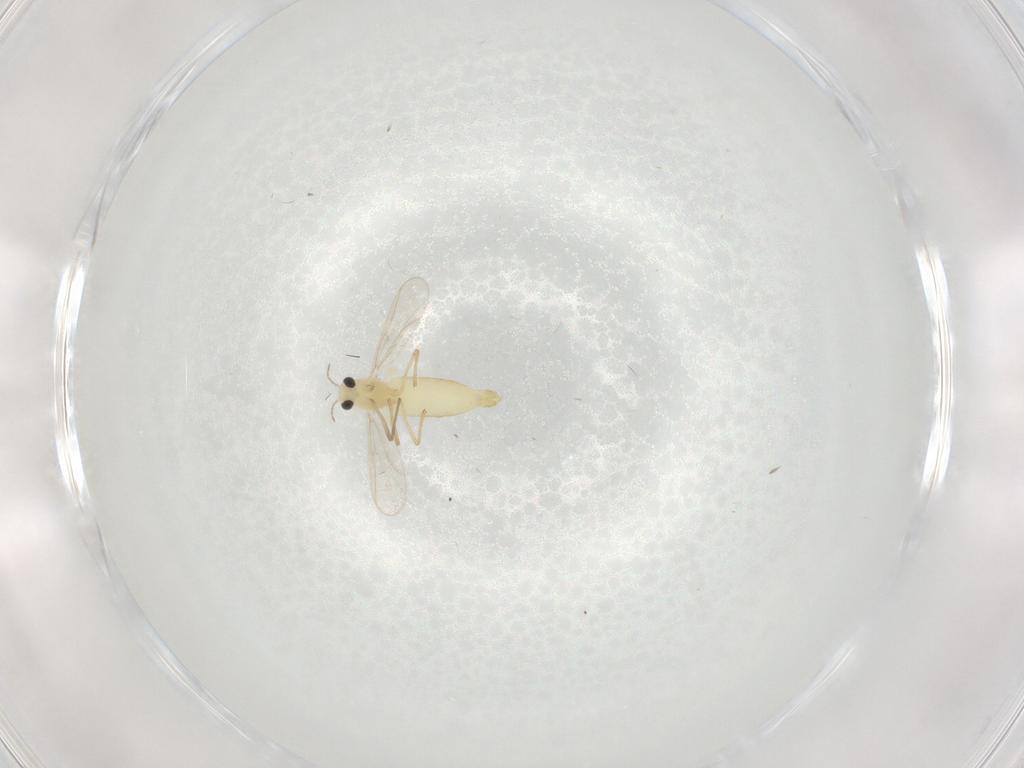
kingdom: Animalia
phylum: Arthropoda
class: Insecta
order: Diptera
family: Chironomidae
